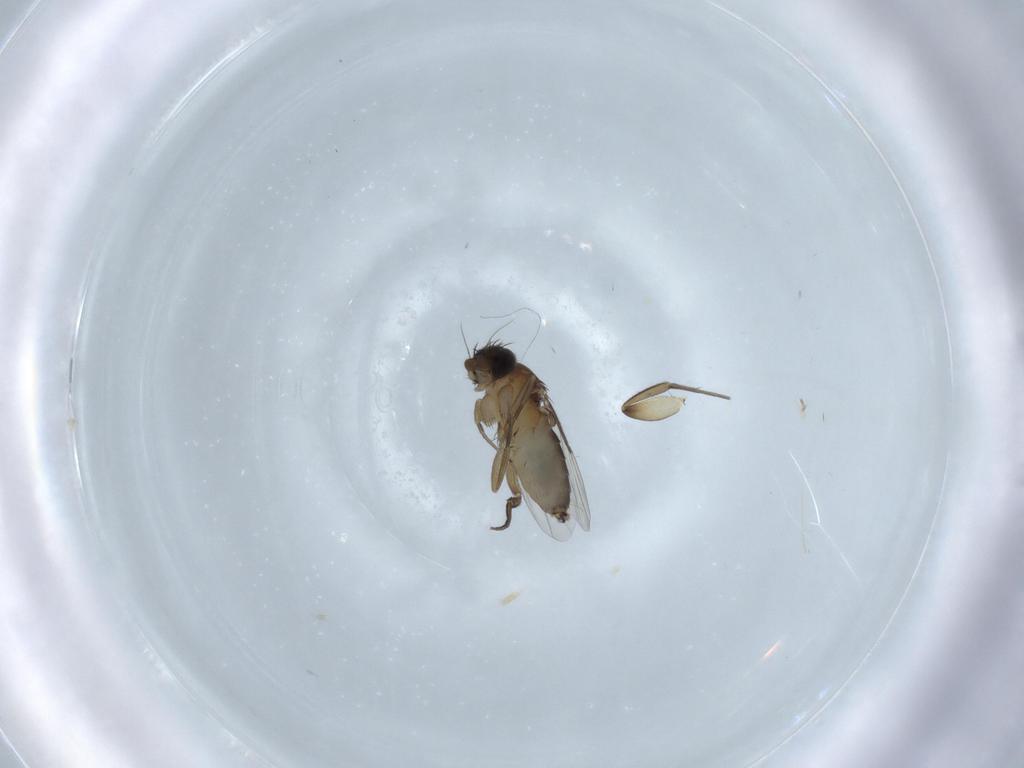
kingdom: Animalia
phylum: Arthropoda
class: Insecta
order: Diptera
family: Phoridae
